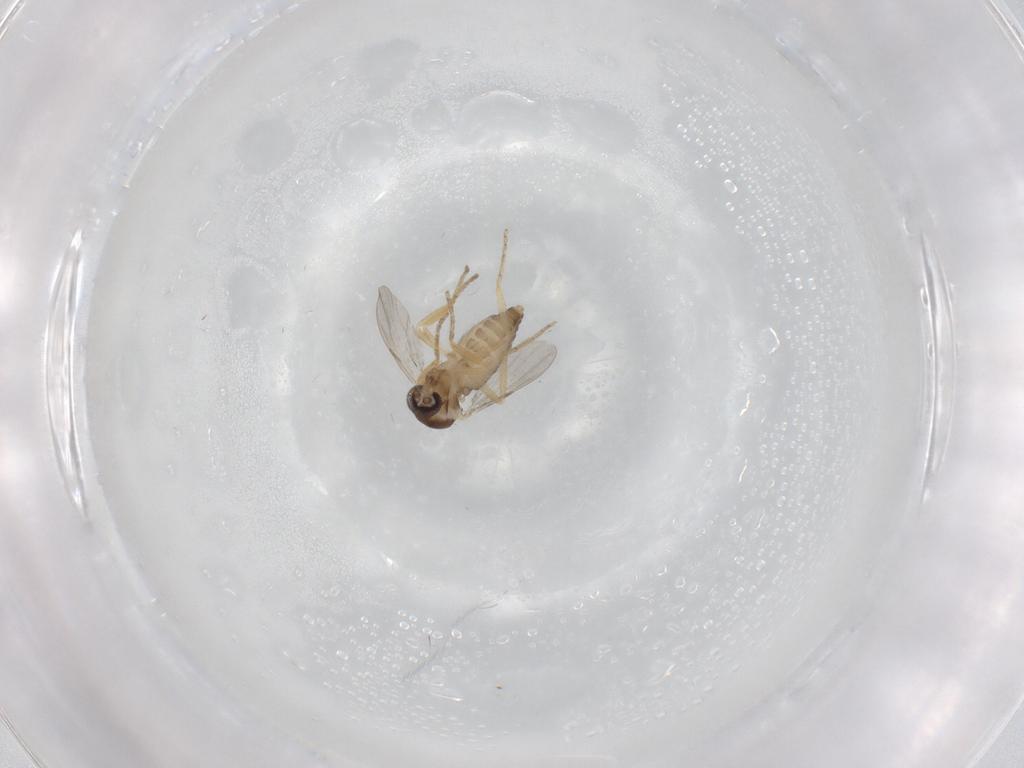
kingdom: Animalia
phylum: Arthropoda
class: Insecta
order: Diptera
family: Ceratopogonidae
